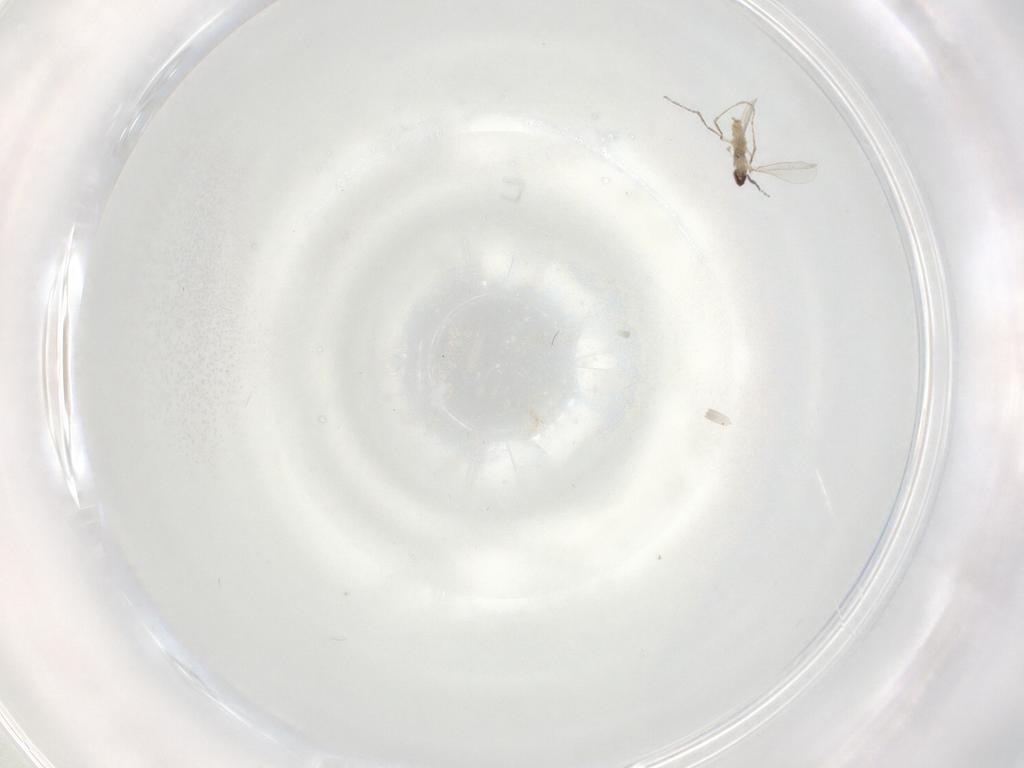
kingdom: Animalia
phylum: Arthropoda
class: Insecta
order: Diptera
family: Cecidomyiidae
